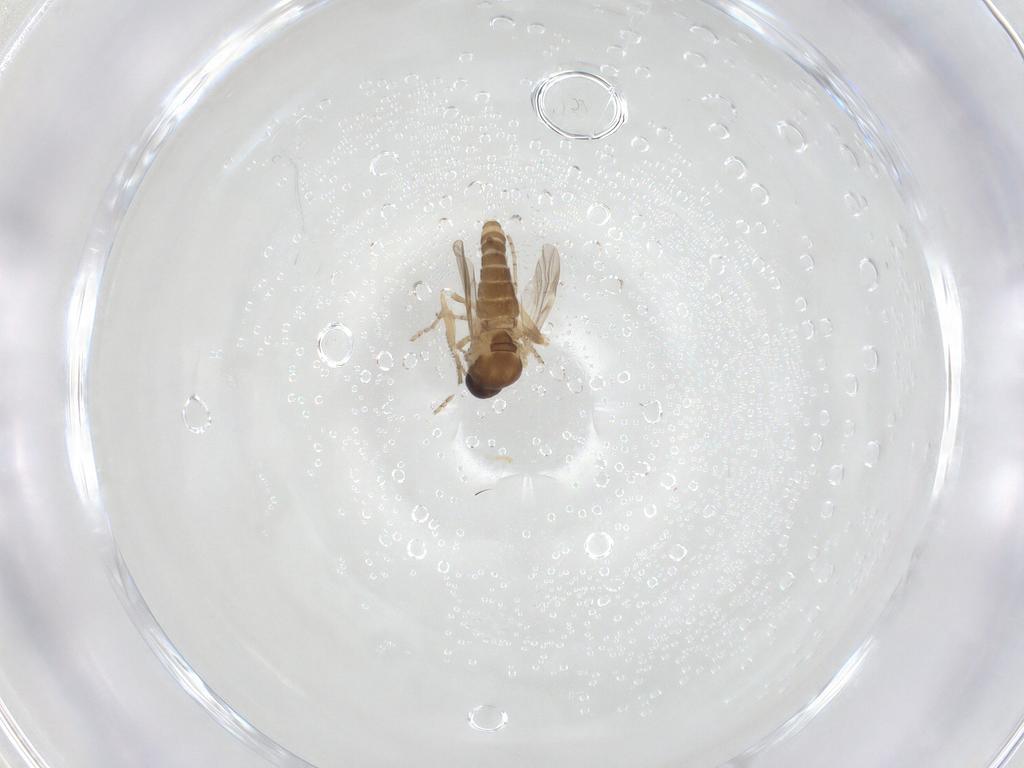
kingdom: Animalia
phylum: Arthropoda
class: Insecta
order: Diptera
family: Ceratopogonidae
